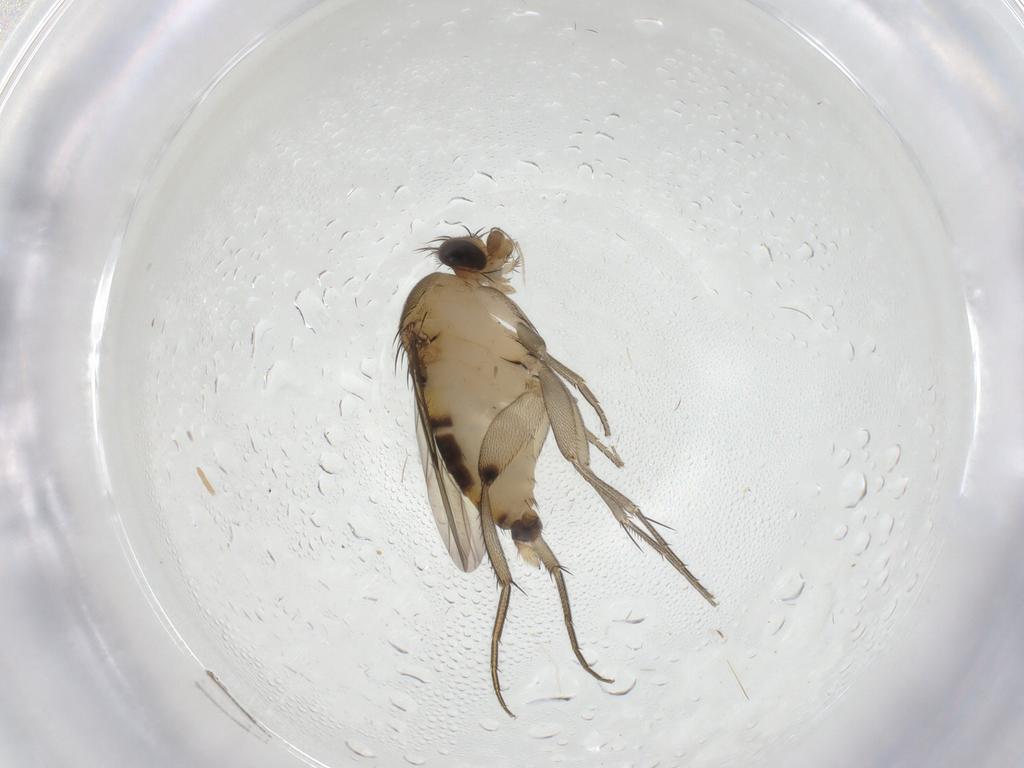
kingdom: Animalia
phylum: Arthropoda
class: Insecta
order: Diptera
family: Phoridae
